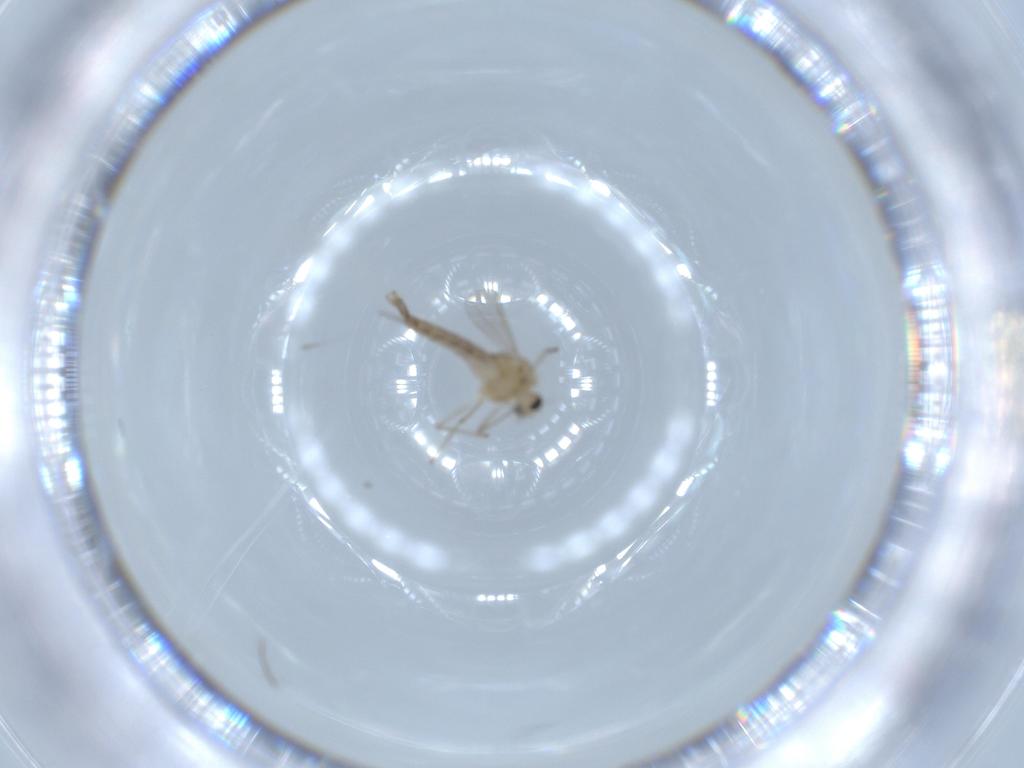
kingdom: Animalia
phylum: Arthropoda
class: Insecta
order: Diptera
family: Chironomidae
